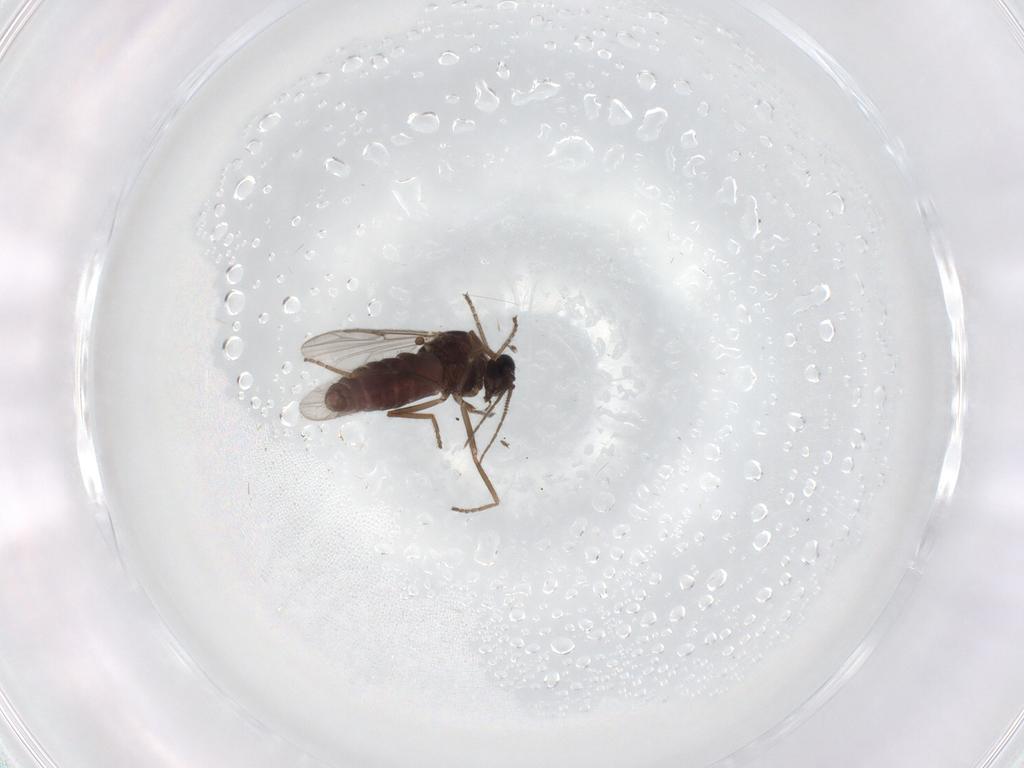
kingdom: Animalia
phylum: Arthropoda
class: Insecta
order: Diptera
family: Ceratopogonidae
